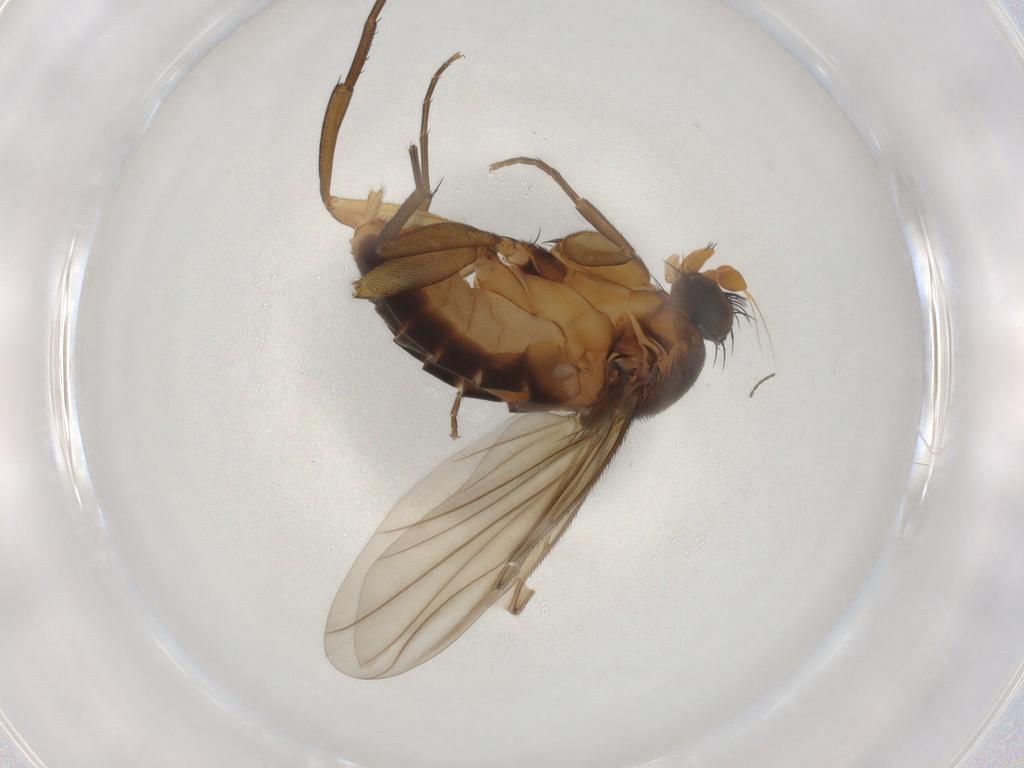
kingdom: Animalia
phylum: Arthropoda
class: Insecta
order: Diptera
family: Phoridae
